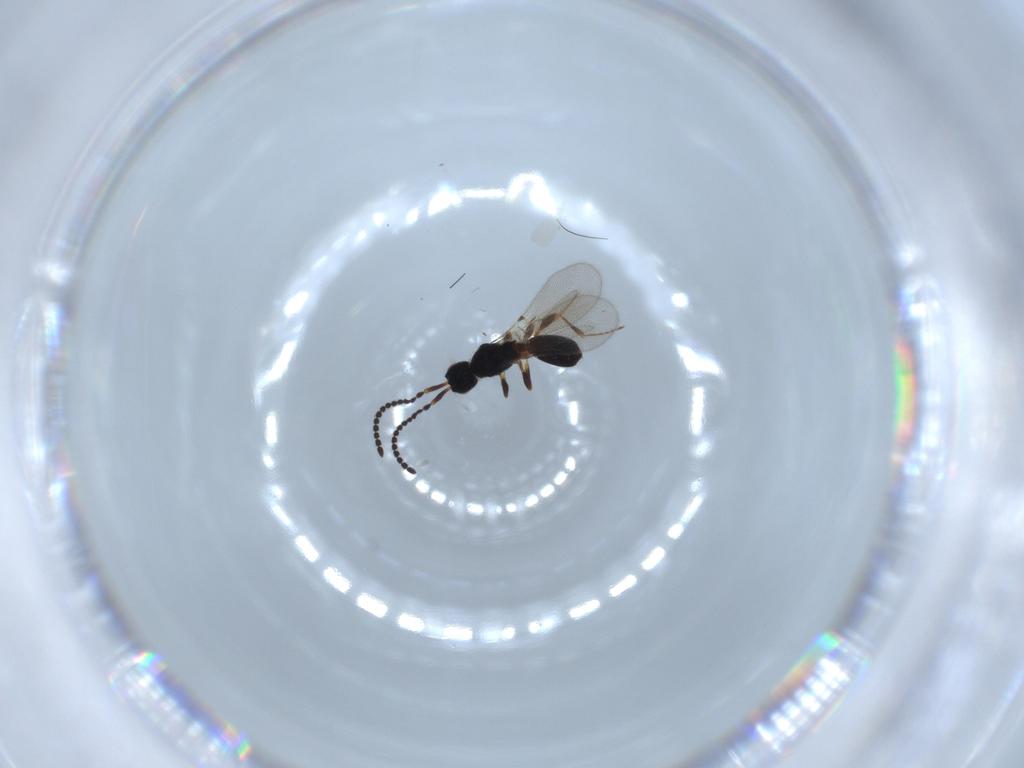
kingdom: Animalia
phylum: Arthropoda
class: Insecta
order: Hymenoptera
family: Diapriidae
